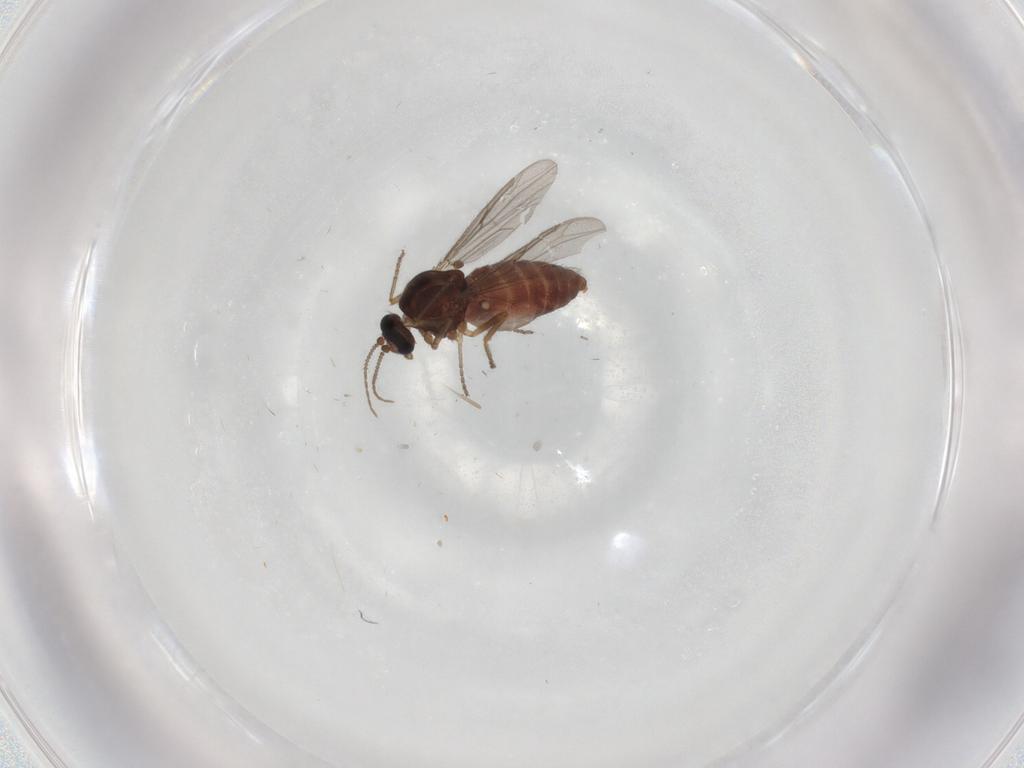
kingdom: Animalia
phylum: Arthropoda
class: Insecta
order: Diptera
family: Ceratopogonidae
